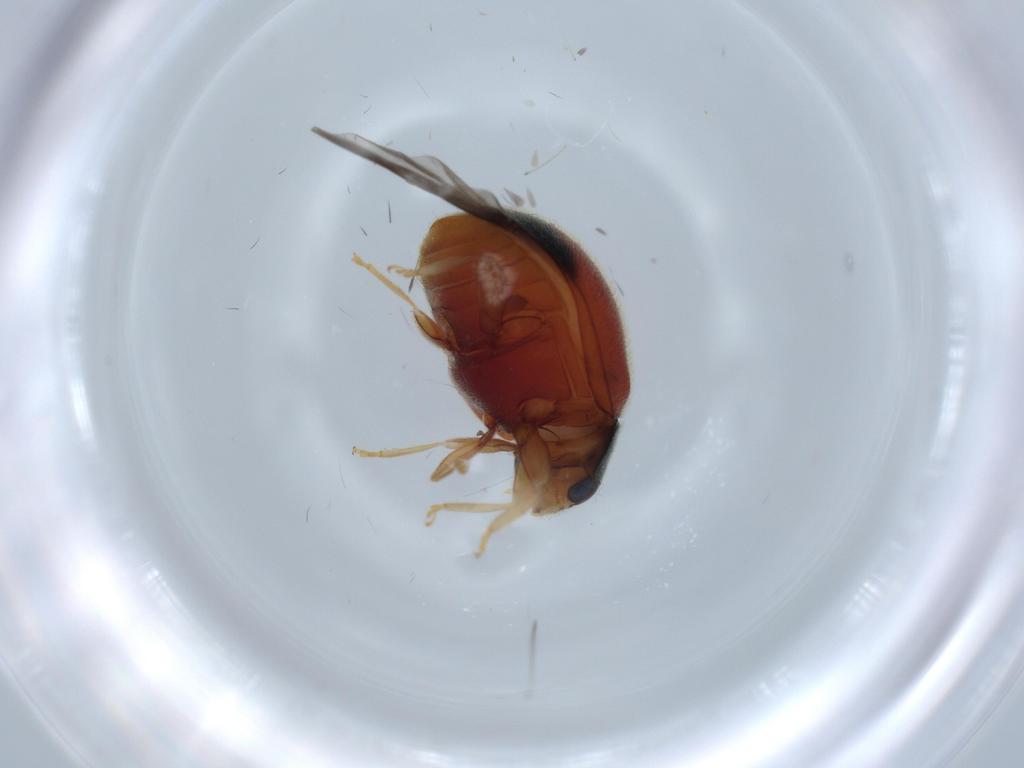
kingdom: Animalia
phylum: Arthropoda
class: Insecta
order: Coleoptera
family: Coccinellidae
